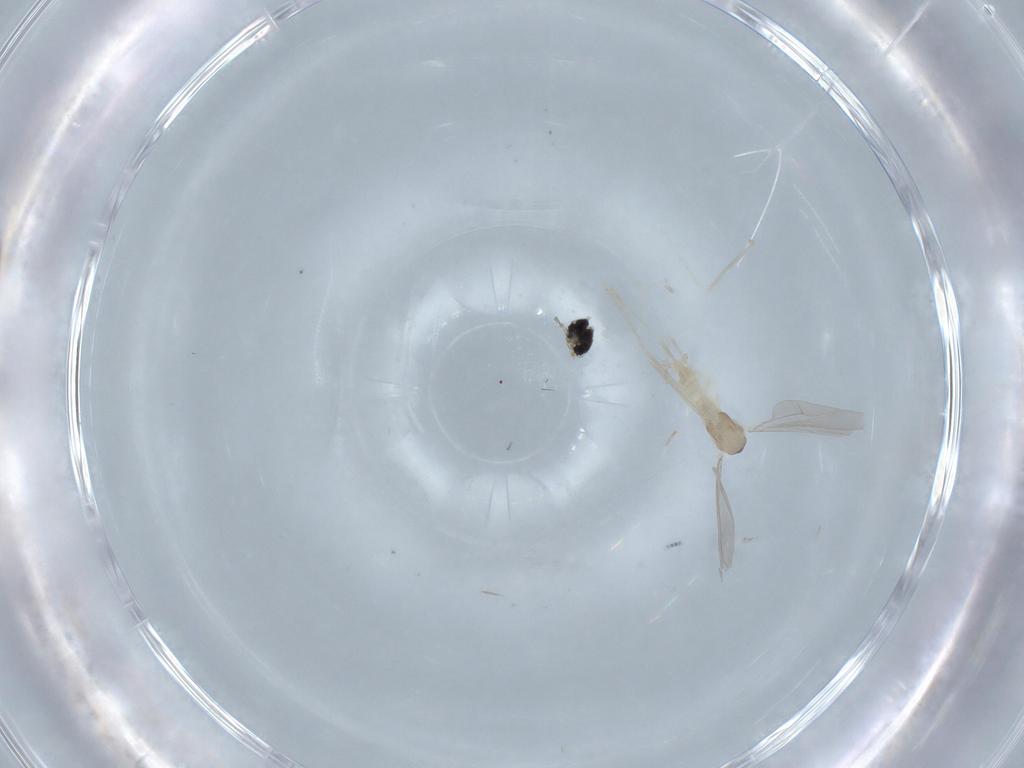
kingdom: Animalia
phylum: Arthropoda
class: Insecta
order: Diptera
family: Cecidomyiidae
